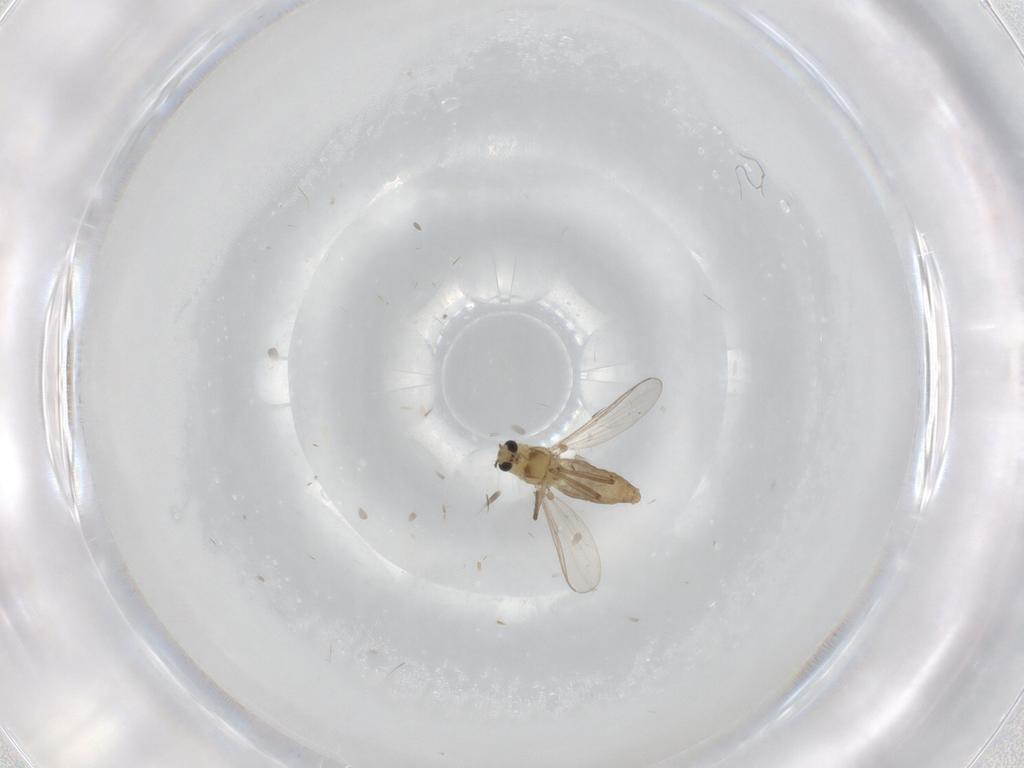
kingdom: Animalia
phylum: Arthropoda
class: Insecta
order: Diptera
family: Chironomidae
